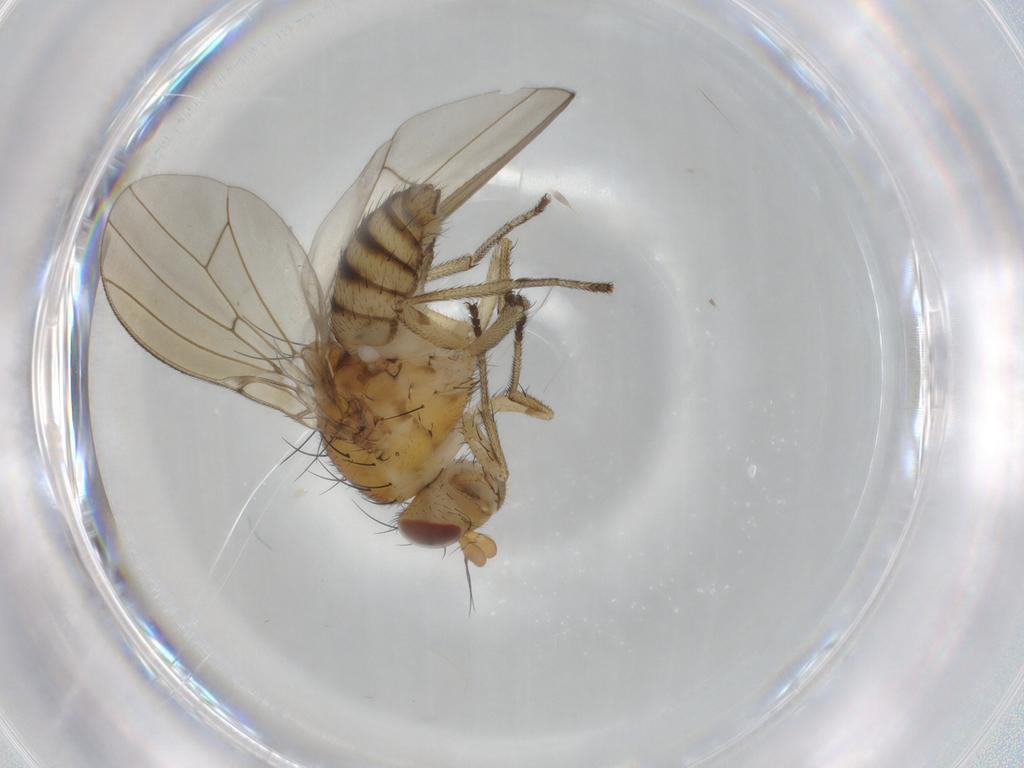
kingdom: Animalia
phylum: Arthropoda
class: Insecta
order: Diptera
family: Lauxaniidae
